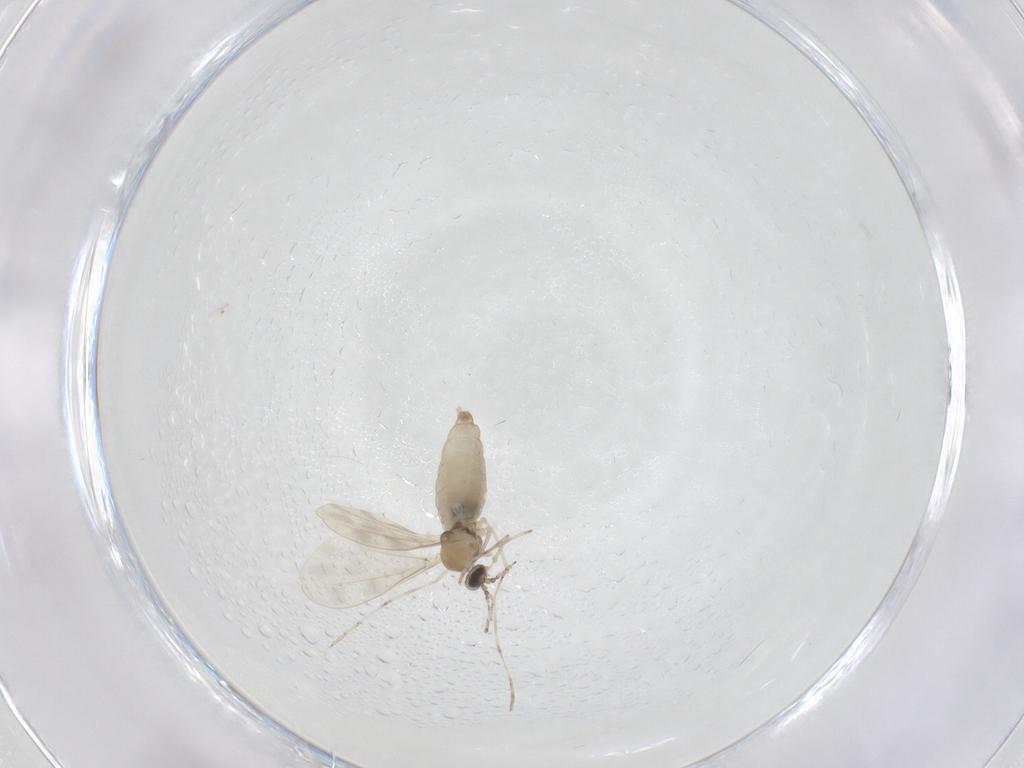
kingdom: Animalia
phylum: Arthropoda
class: Insecta
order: Diptera
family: Cecidomyiidae
